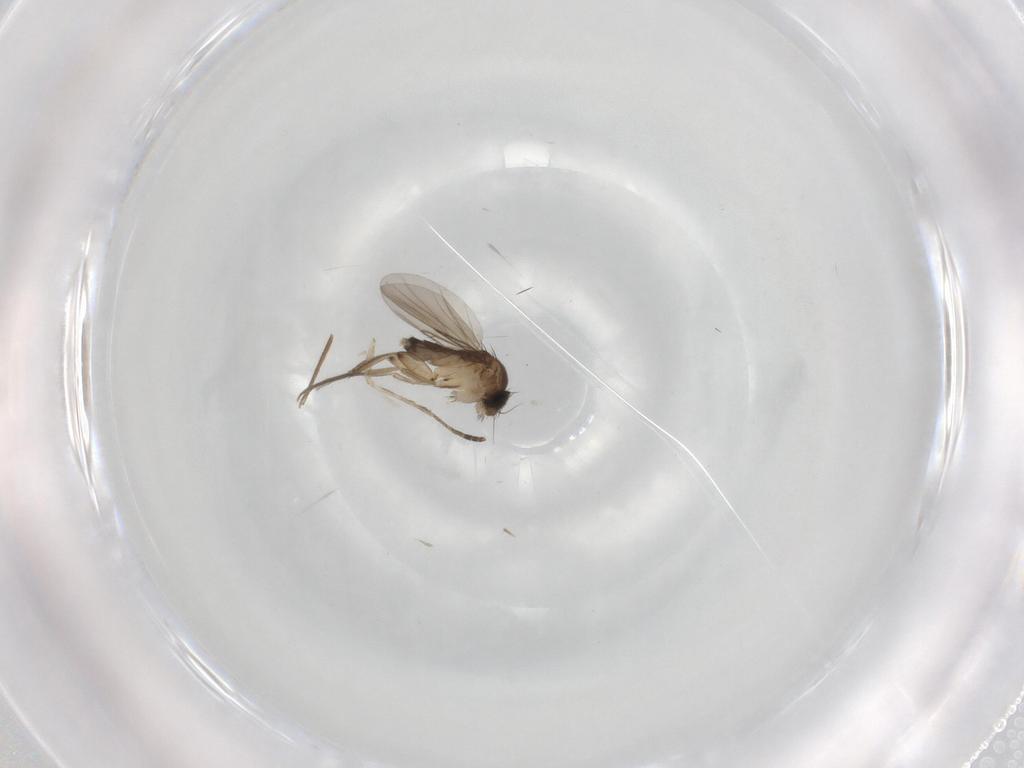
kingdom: Animalia
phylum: Arthropoda
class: Insecta
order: Diptera
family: Phoridae
